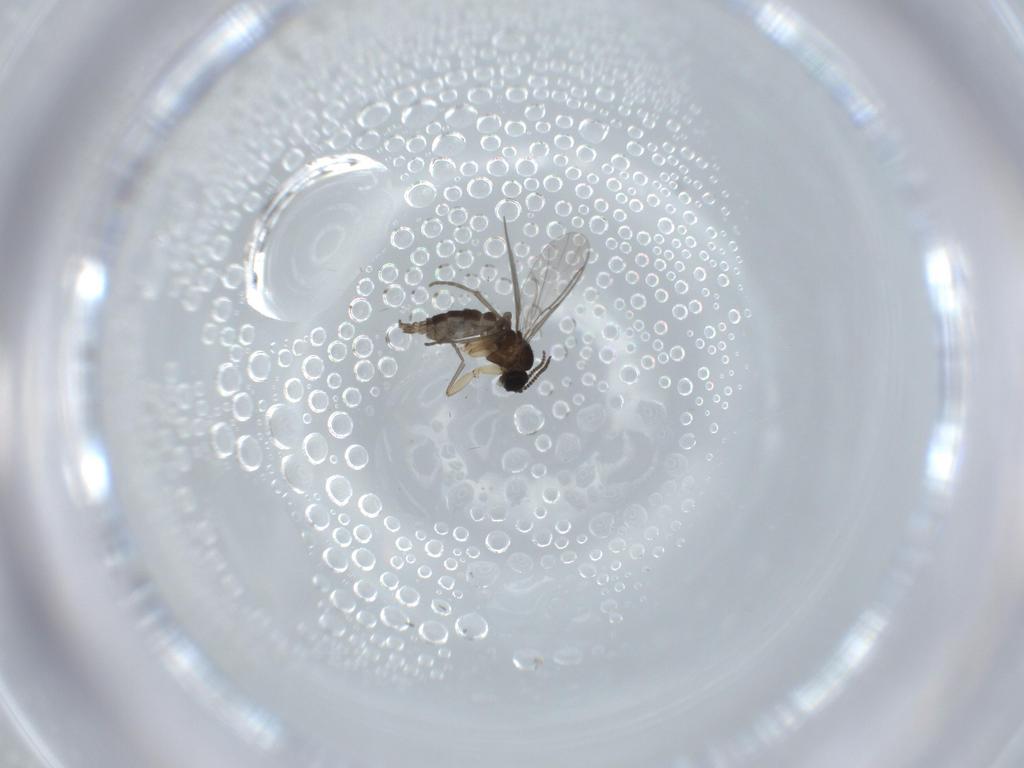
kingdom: Animalia
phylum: Arthropoda
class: Insecta
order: Diptera
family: Sciaridae
